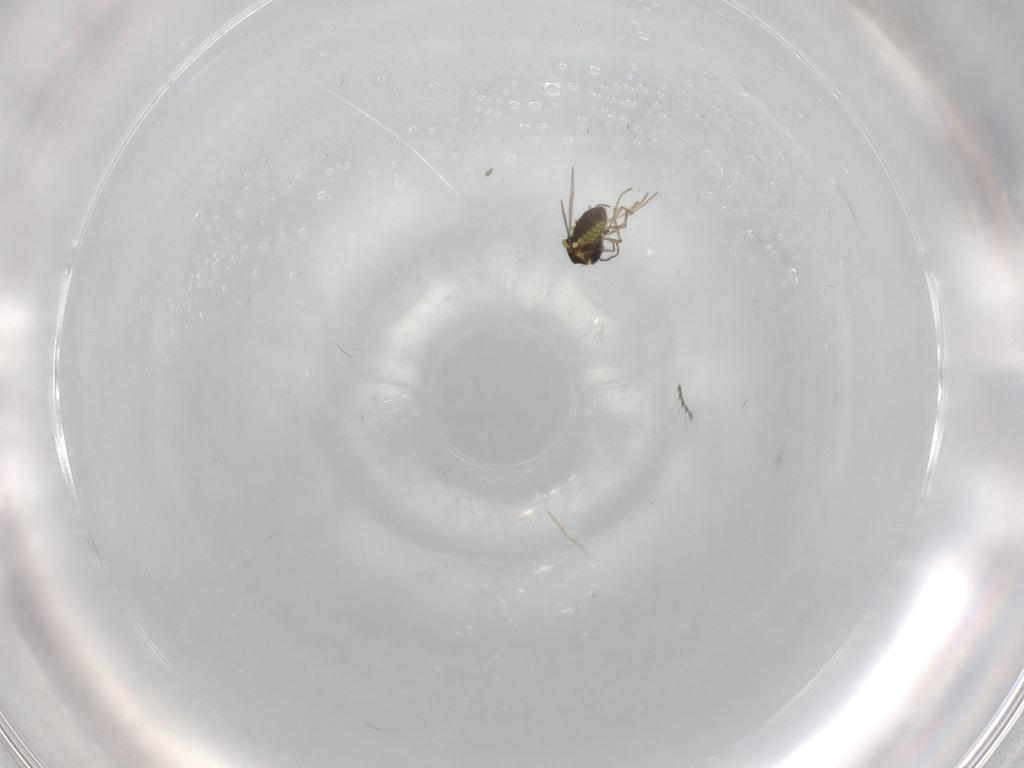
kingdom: Animalia
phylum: Arthropoda
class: Insecta
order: Diptera
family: Ceratopogonidae
